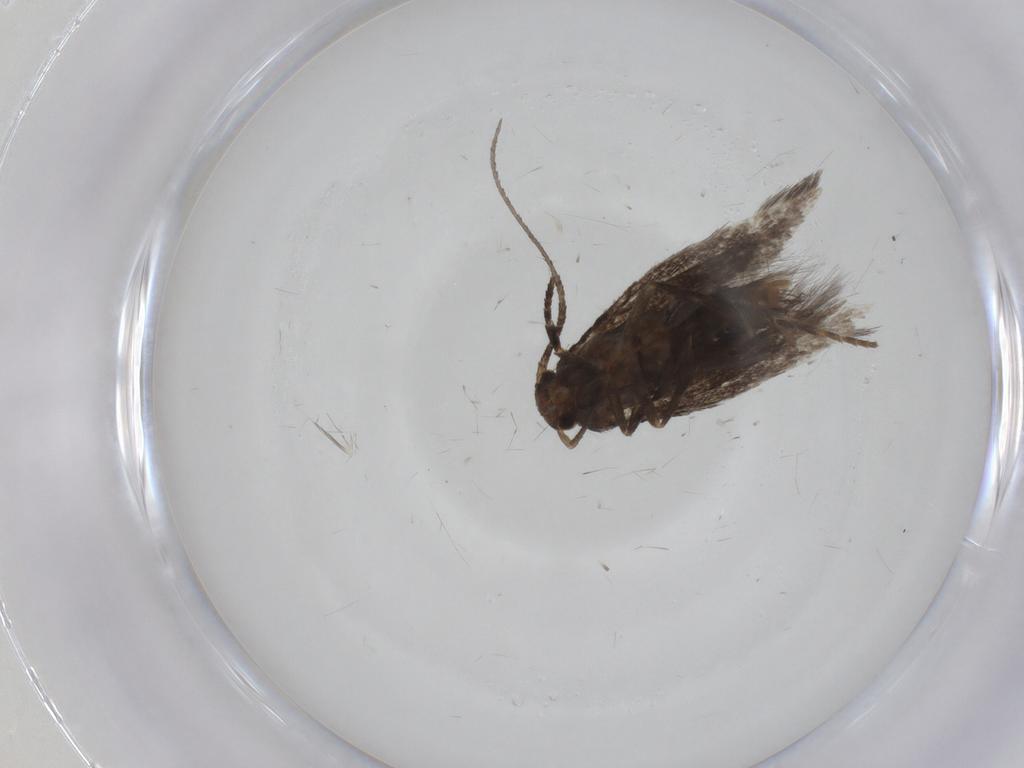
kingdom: Animalia
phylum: Arthropoda
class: Insecta
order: Lepidoptera
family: Elachistidae
